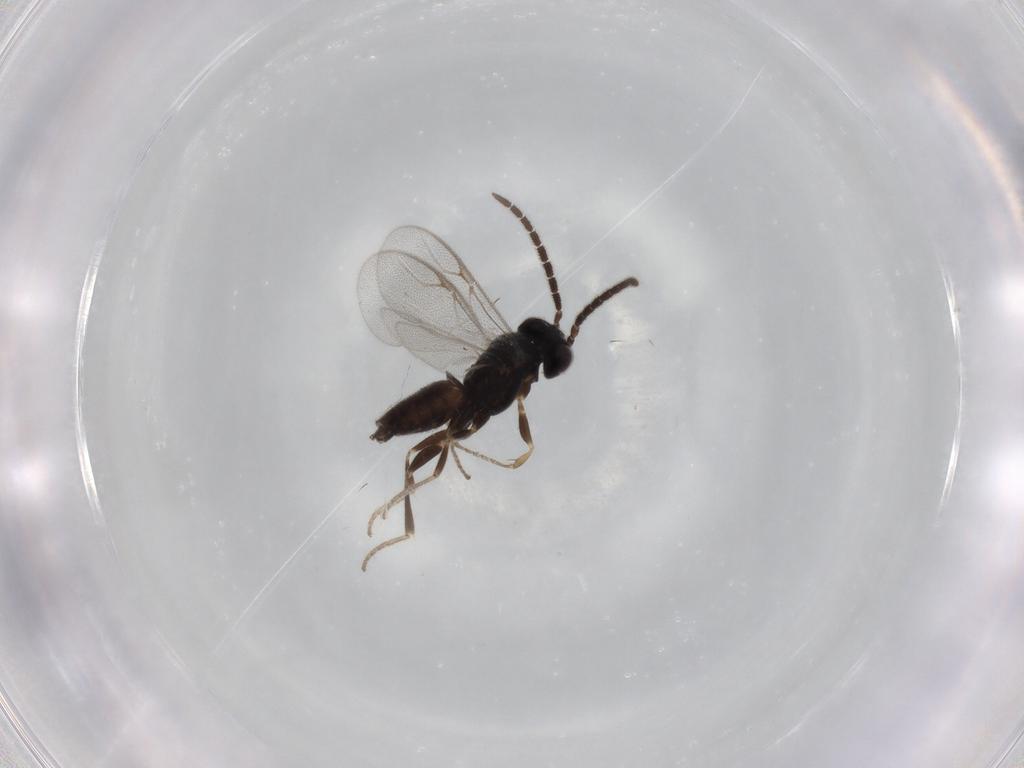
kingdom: Animalia
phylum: Arthropoda
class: Insecta
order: Hymenoptera
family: Dryinidae
